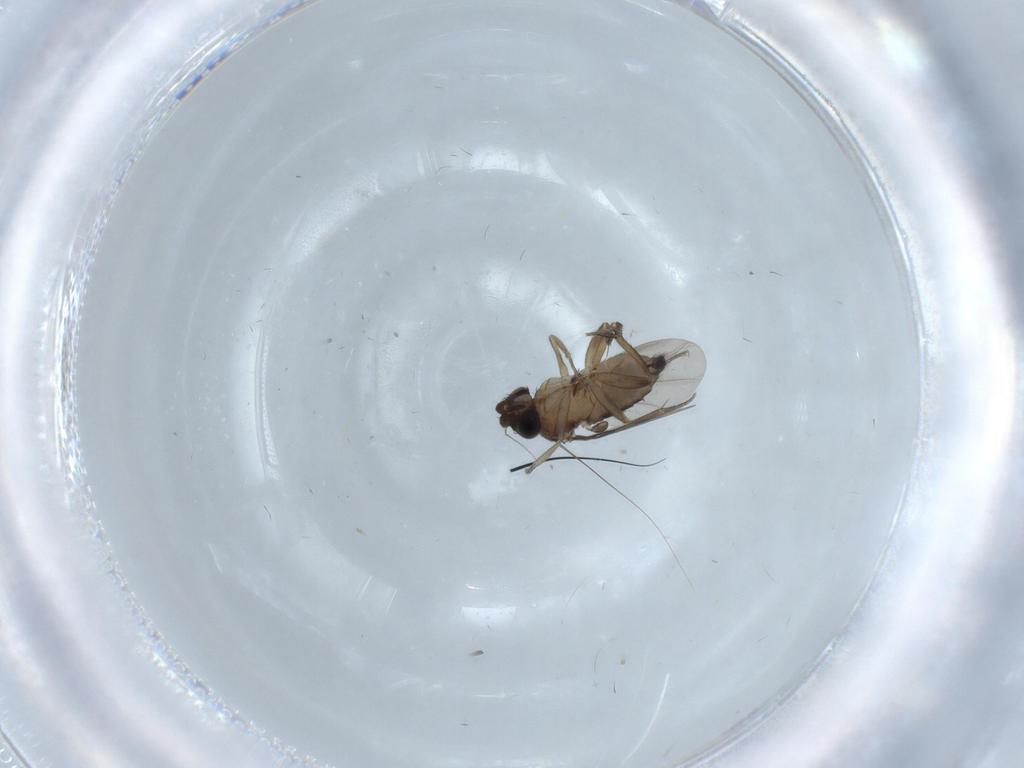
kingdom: Animalia
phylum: Arthropoda
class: Insecta
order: Diptera
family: Phoridae
